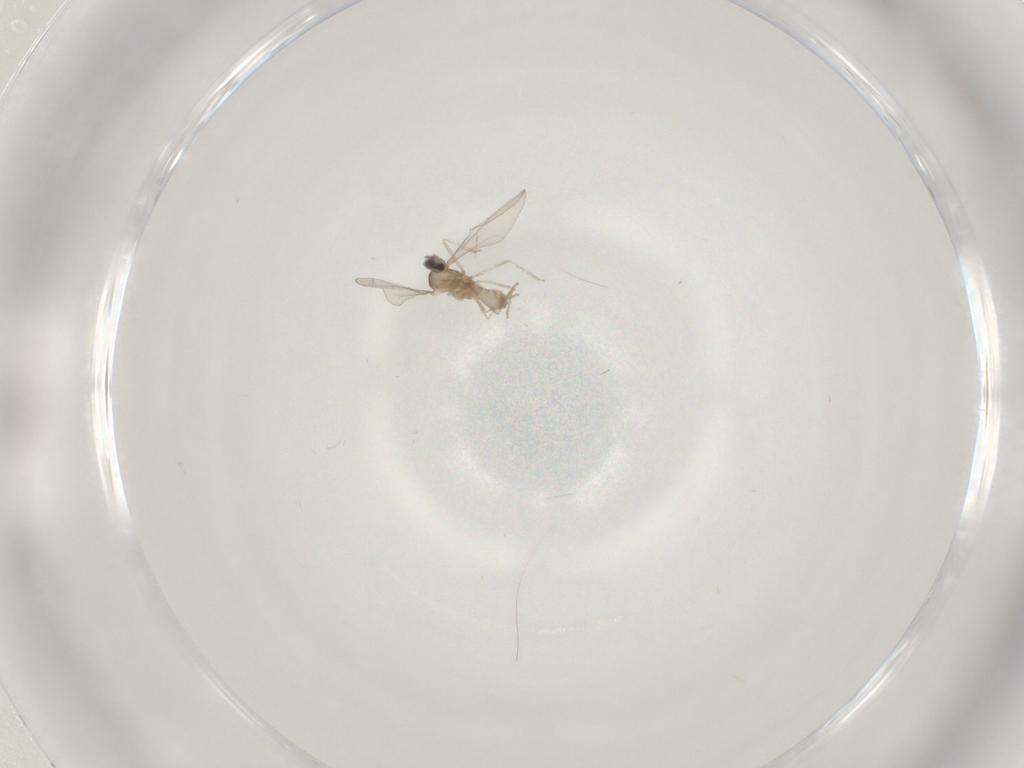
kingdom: Animalia
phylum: Arthropoda
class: Insecta
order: Diptera
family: Cecidomyiidae
